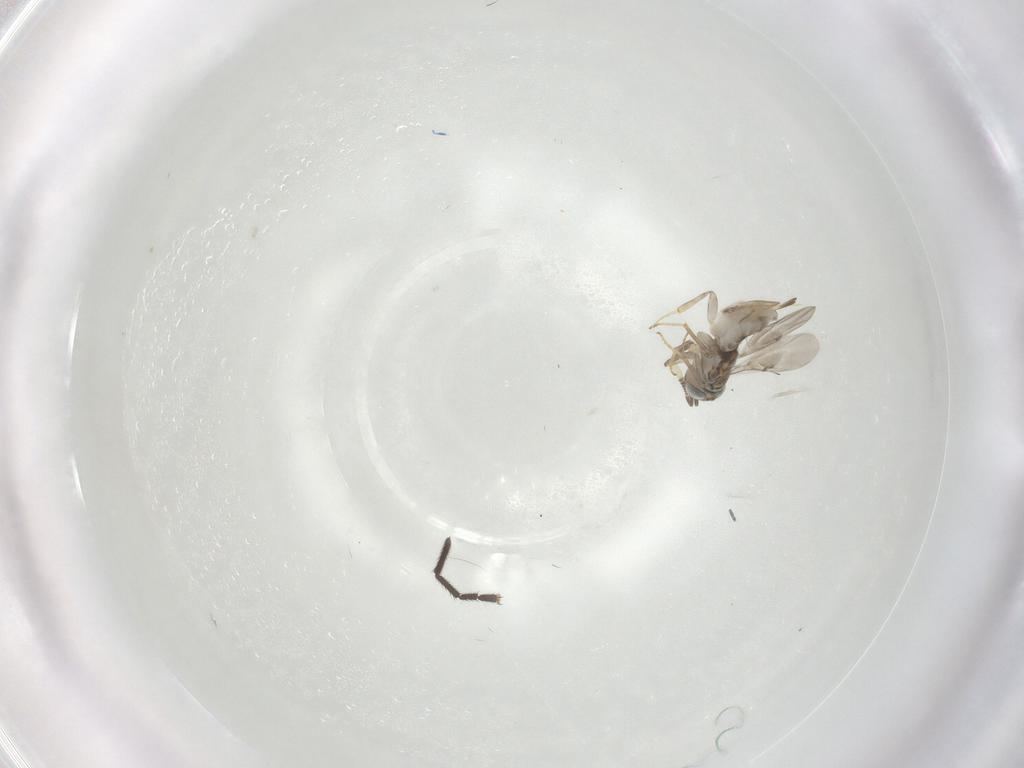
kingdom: Animalia
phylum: Arthropoda
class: Insecta
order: Hymenoptera
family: Encyrtidae
